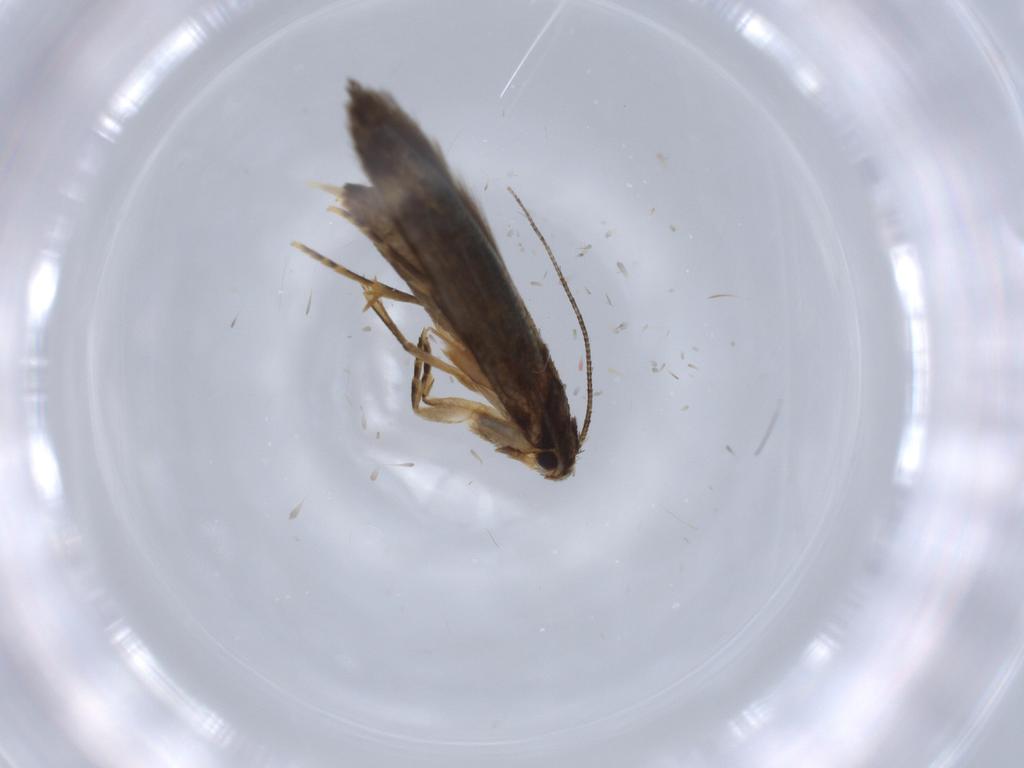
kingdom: Animalia
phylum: Arthropoda
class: Insecta
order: Lepidoptera
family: Tineidae
